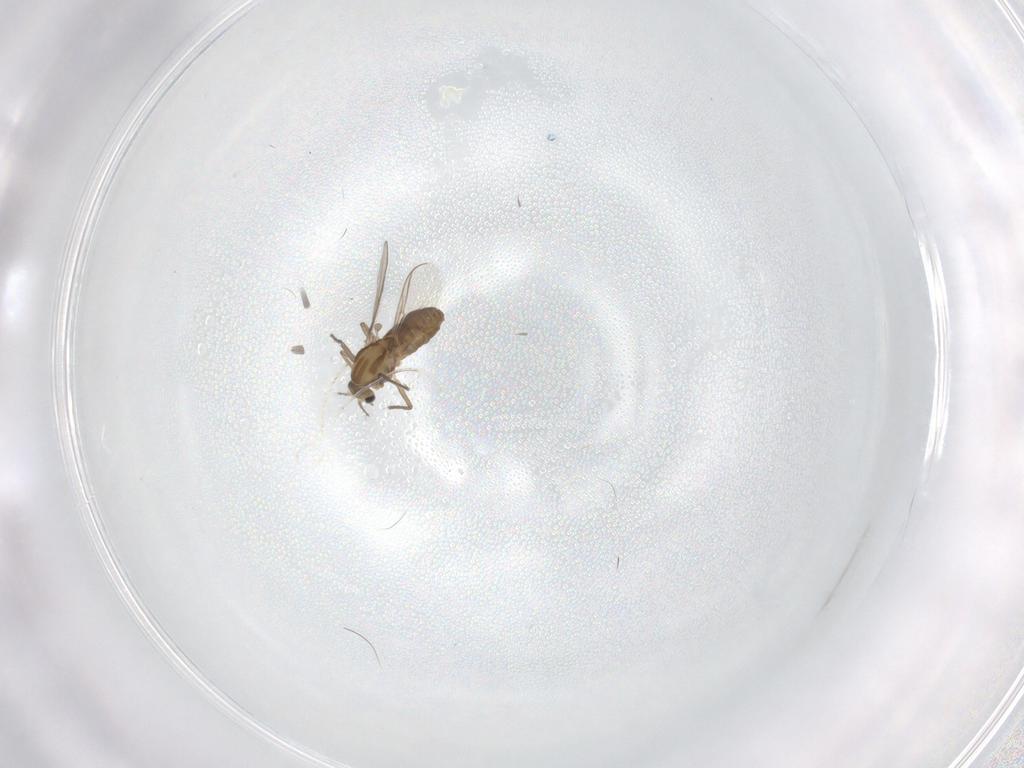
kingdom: Animalia
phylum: Arthropoda
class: Insecta
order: Diptera
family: Chironomidae
